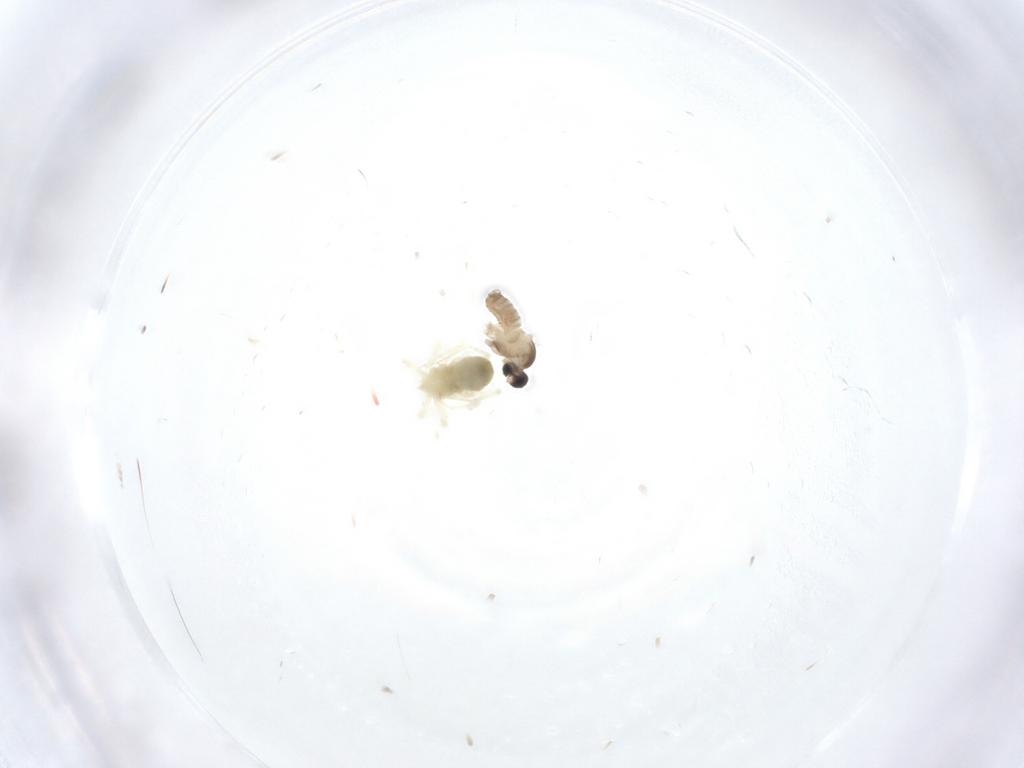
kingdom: Animalia
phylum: Arthropoda
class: Insecta
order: Diptera
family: Cecidomyiidae
